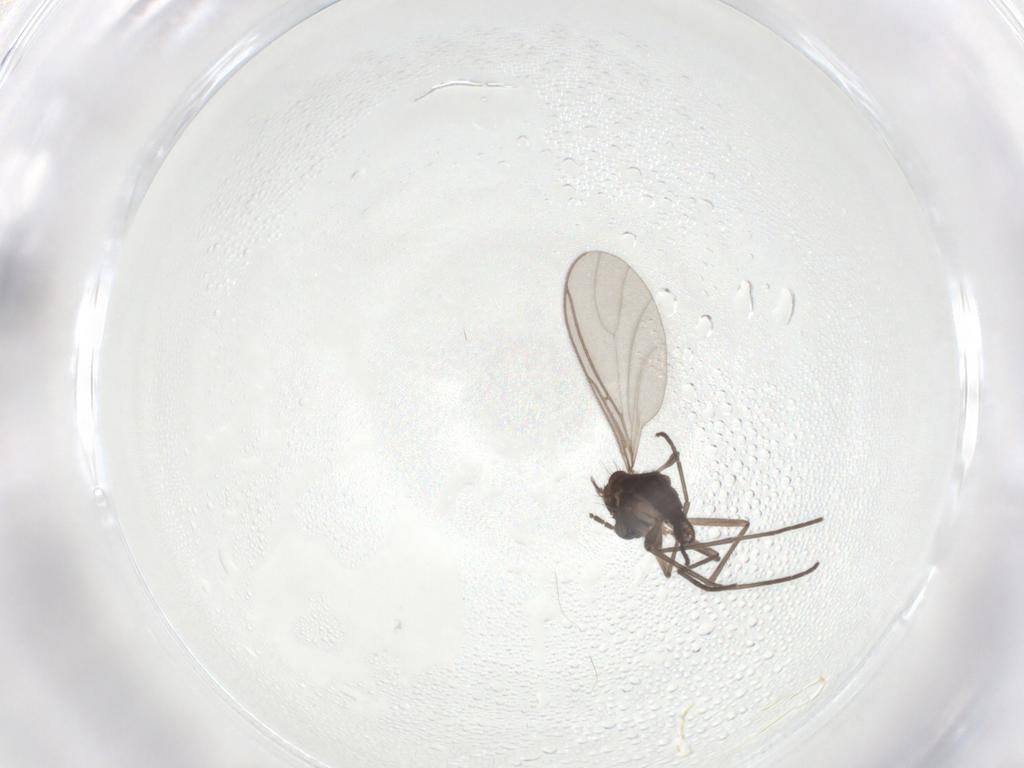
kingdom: Animalia
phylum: Arthropoda
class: Insecta
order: Diptera
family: Sciaridae
